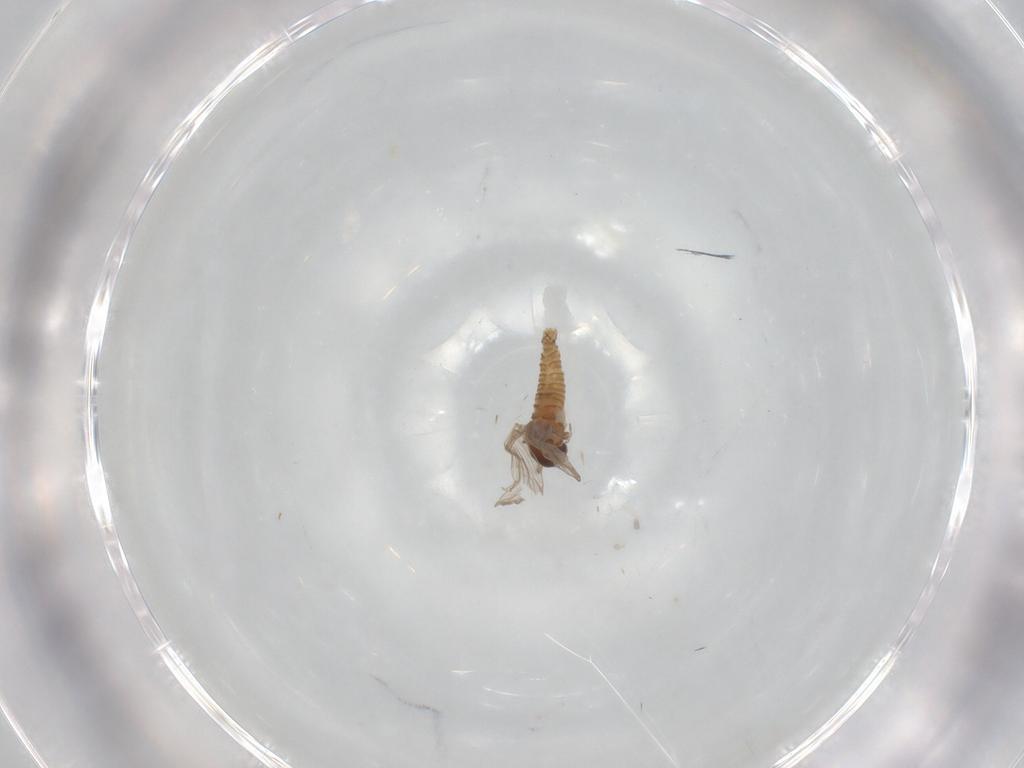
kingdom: Animalia
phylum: Arthropoda
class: Insecta
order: Diptera
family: Psychodidae
